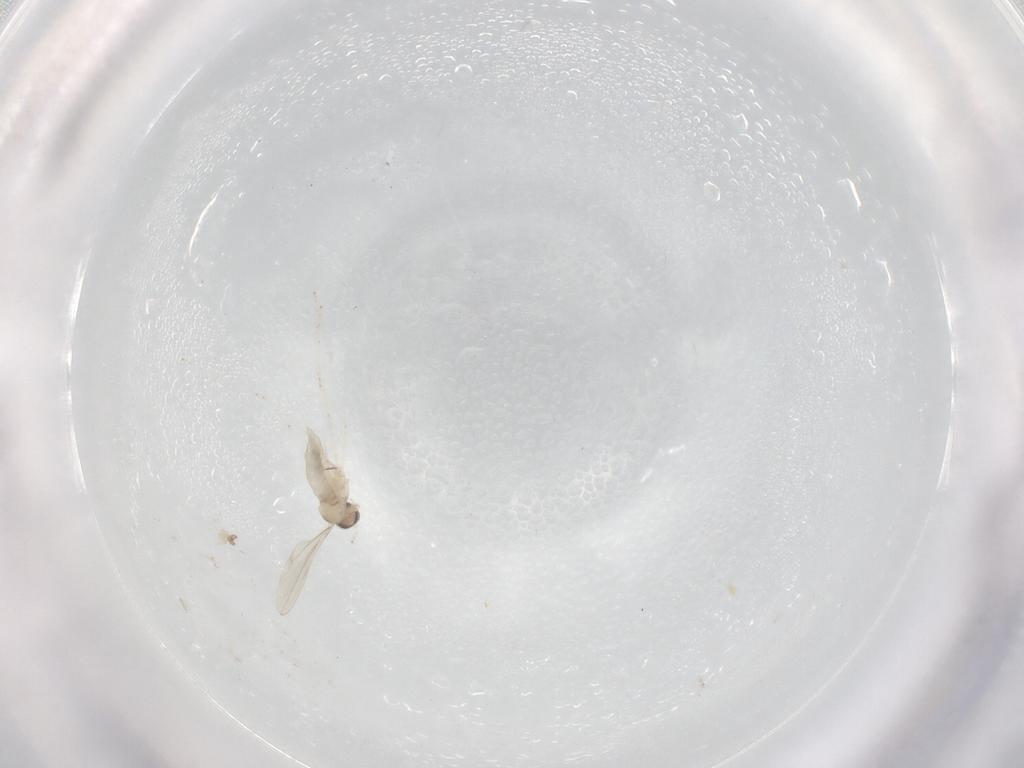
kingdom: Animalia
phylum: Arthropoda
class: Insecta
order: Diptera
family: Cecidomyiidae
